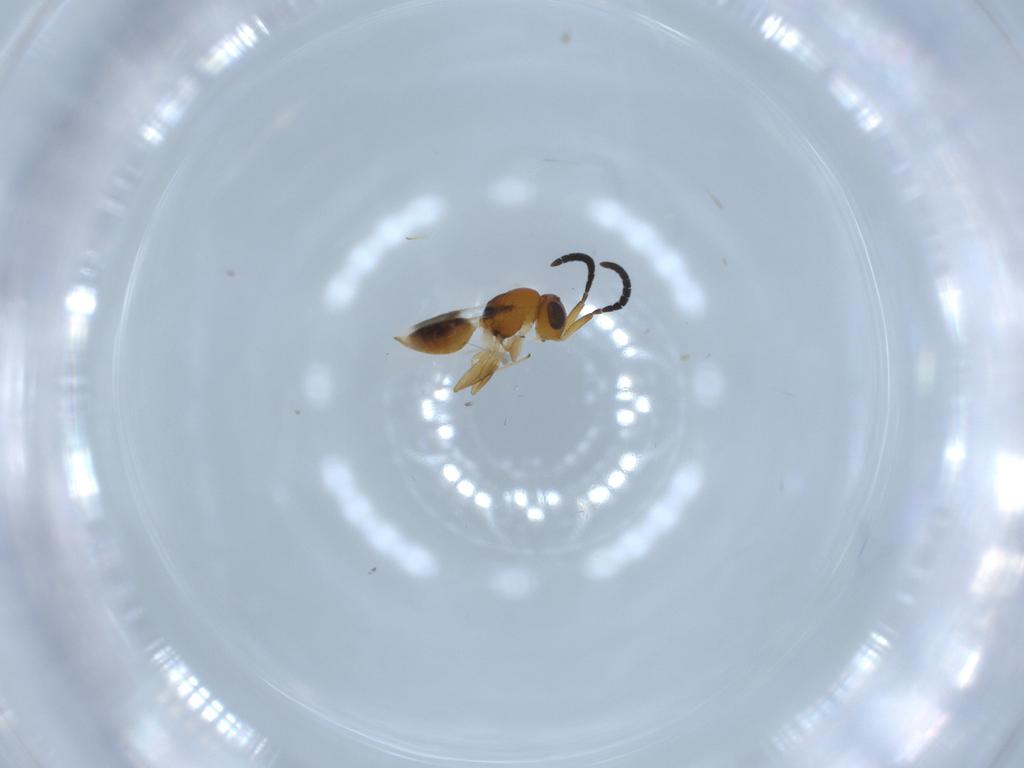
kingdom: Animalia
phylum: Arthropoda
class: Insecta
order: Hymenoptera
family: Megaspilidae
